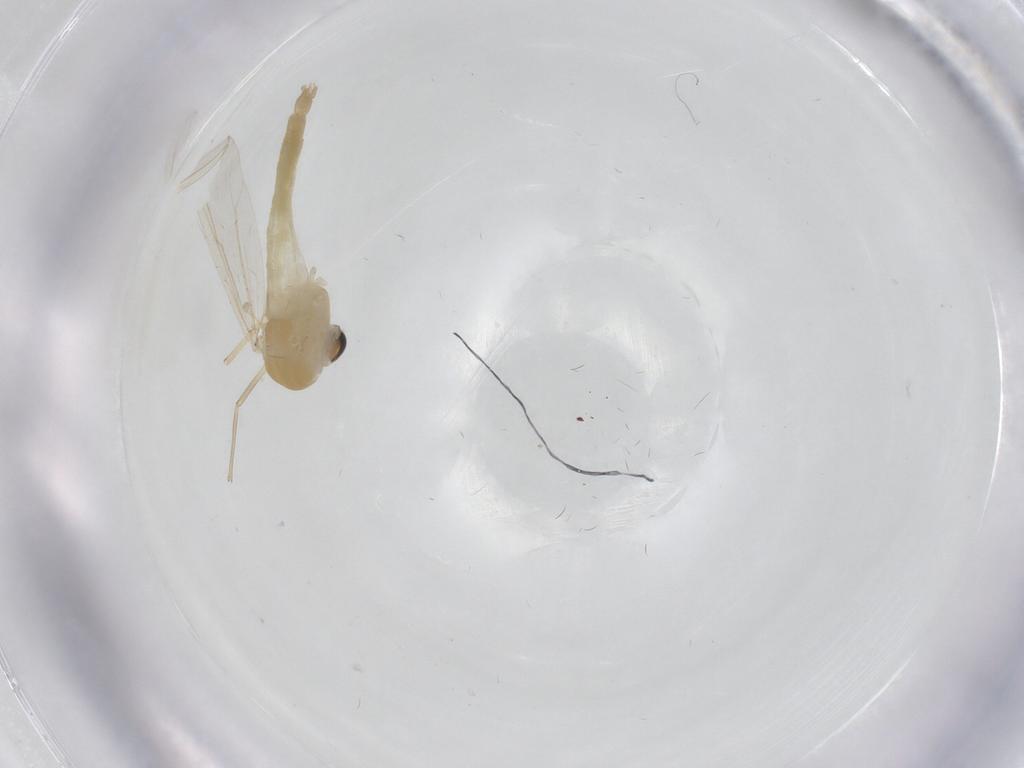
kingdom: Animalia
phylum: Arthropoda
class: Insecta
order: Diptera
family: Chironomidae
